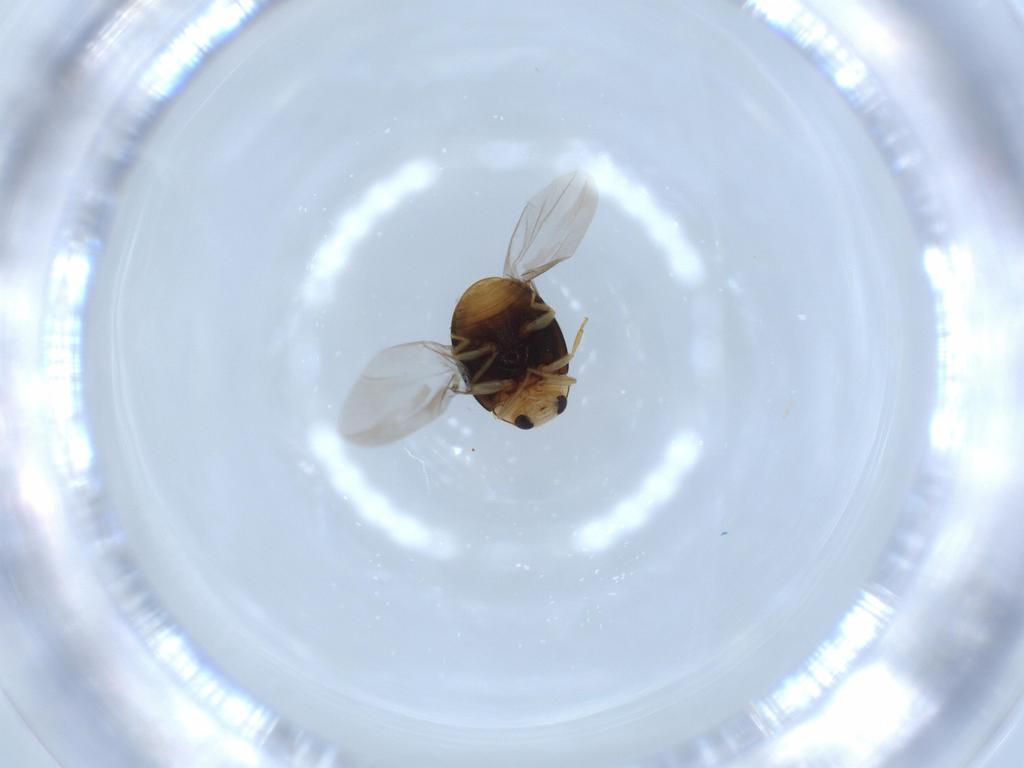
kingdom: Animalia
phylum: Arthropoda
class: Insecta
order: Coleoptera
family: Coccinellidae
